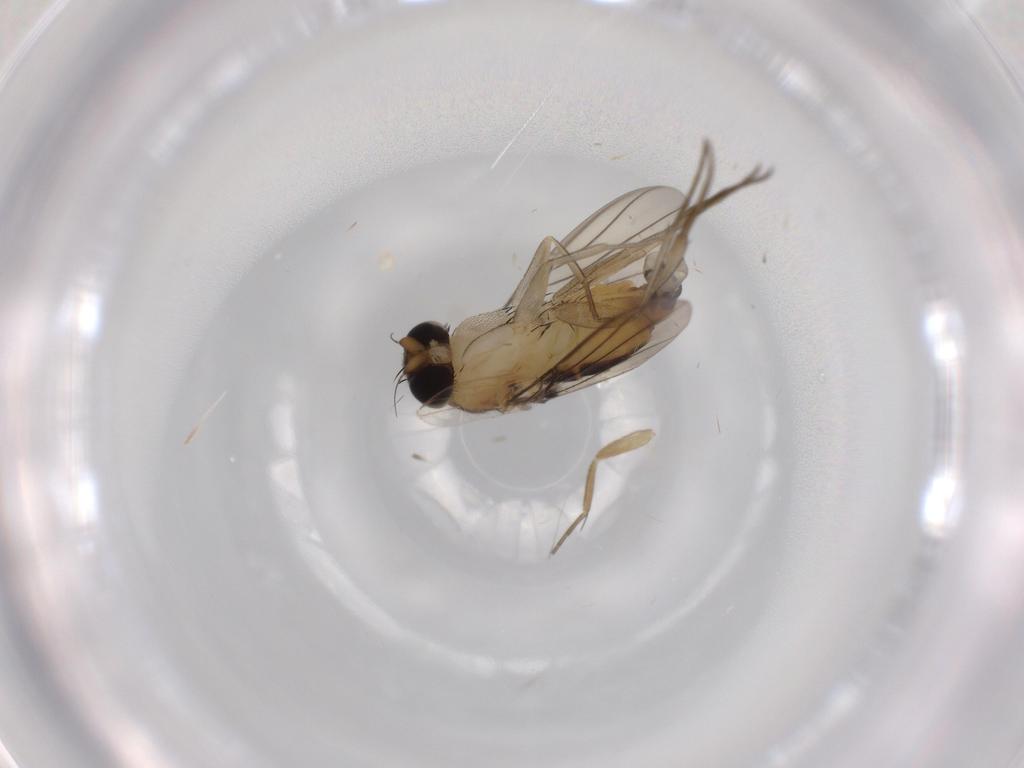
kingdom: Animalia
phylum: Arthropoda
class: Insecta
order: Diptera
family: Phoridae
